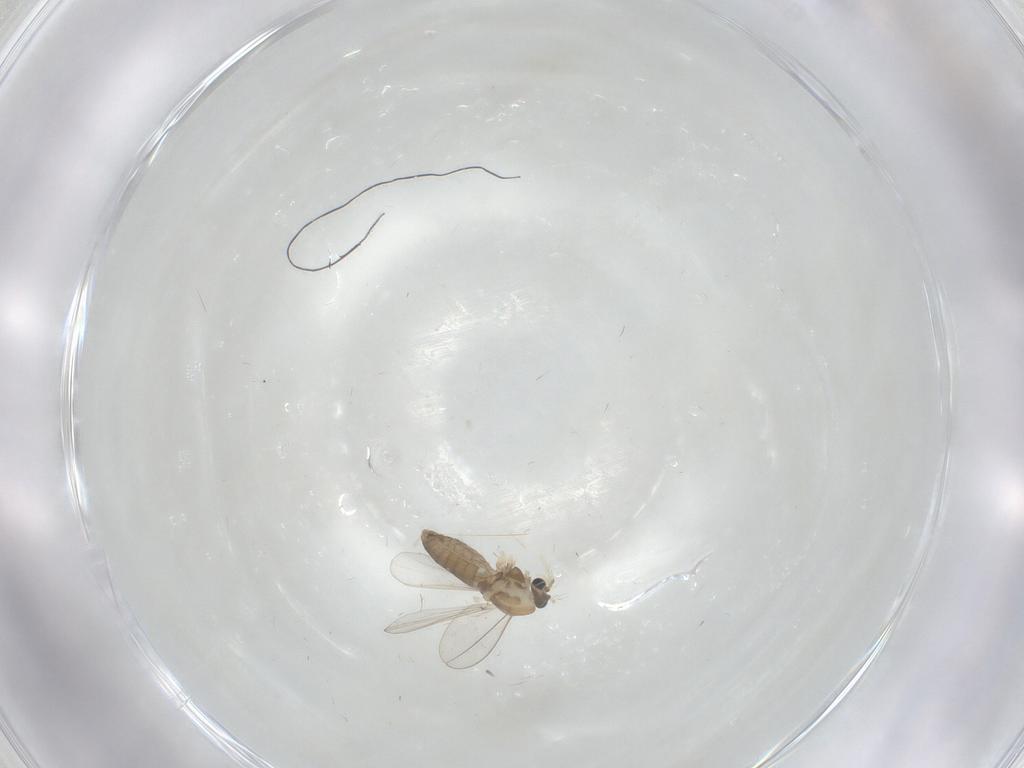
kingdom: Animalia
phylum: Arthropoda
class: Insecta
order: Diptera
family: Chironomidae
